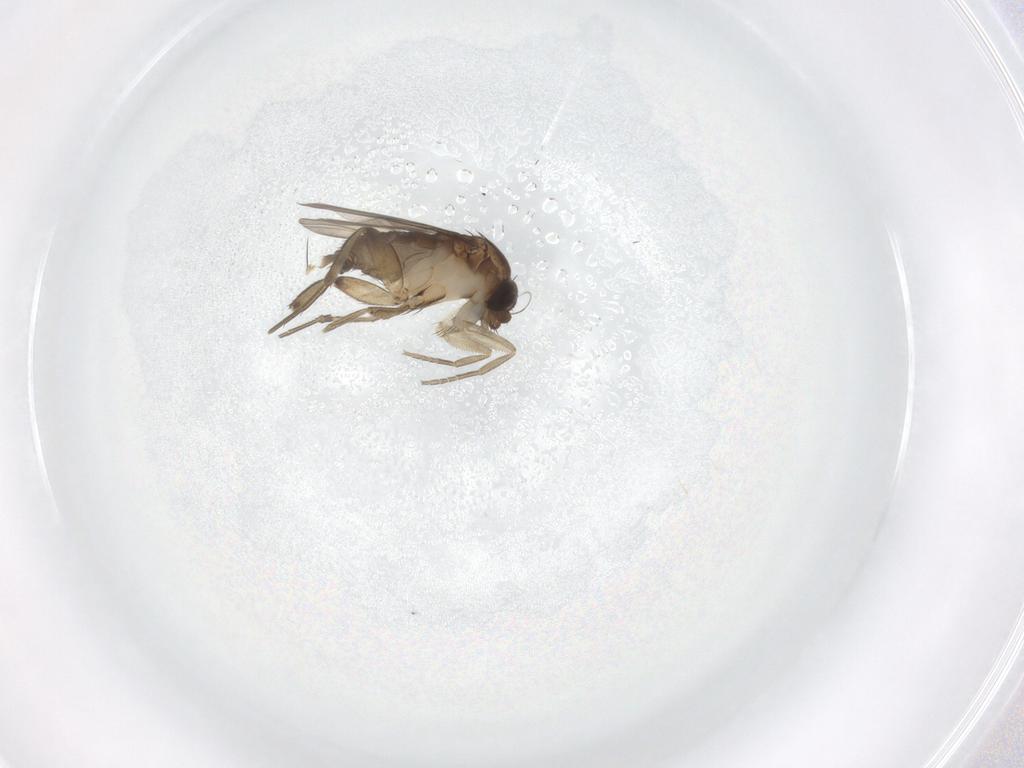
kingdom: Animalia
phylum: Arthropoda
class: Insecta
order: Diptera
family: Phoridae
